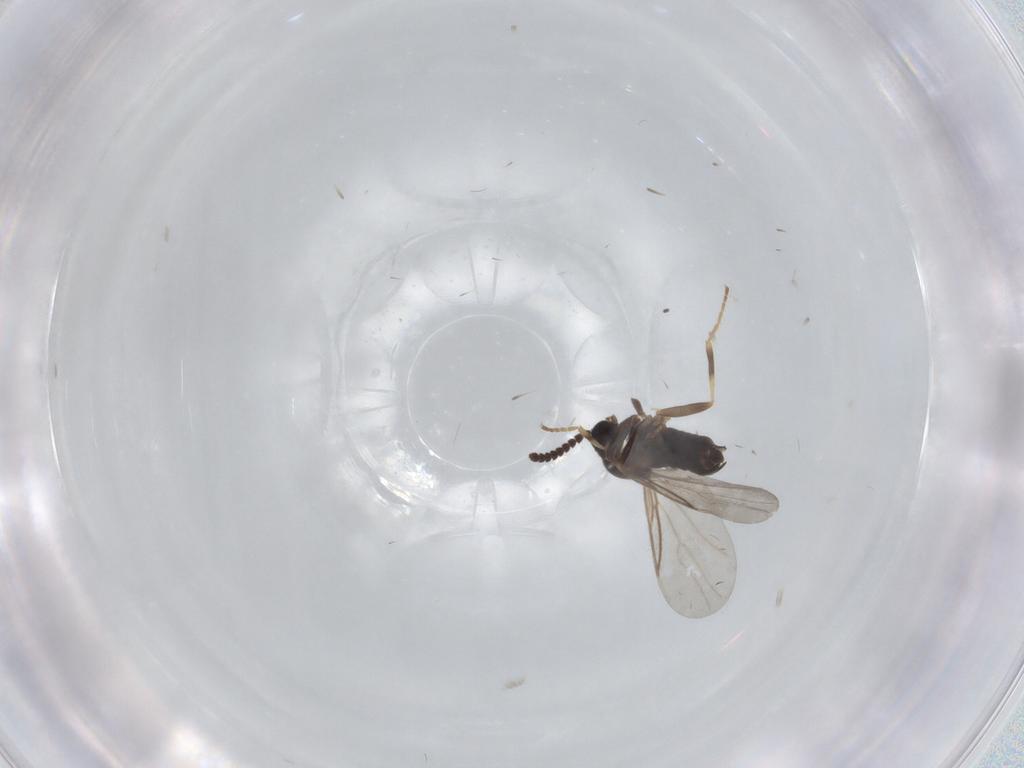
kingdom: Animalia
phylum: Arthropoda
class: Insecta
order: Diptera
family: Scatopsidae
